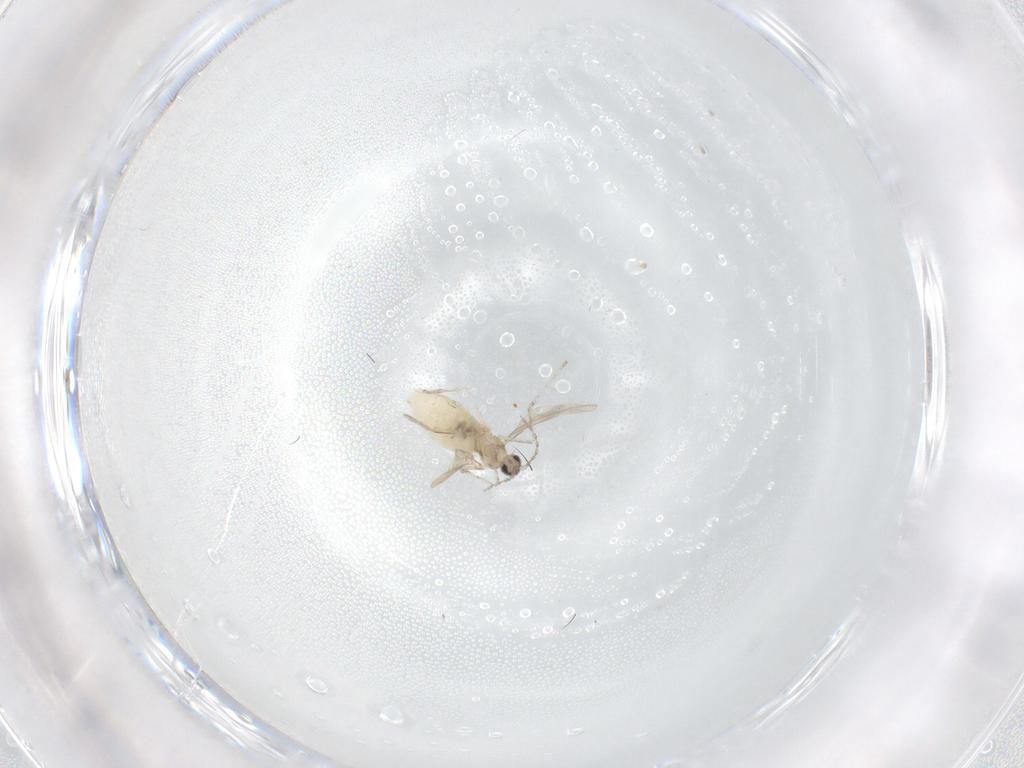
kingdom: Animalia
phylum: Arthropoda
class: Insecta
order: Diptera
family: Cecidomyiidae
